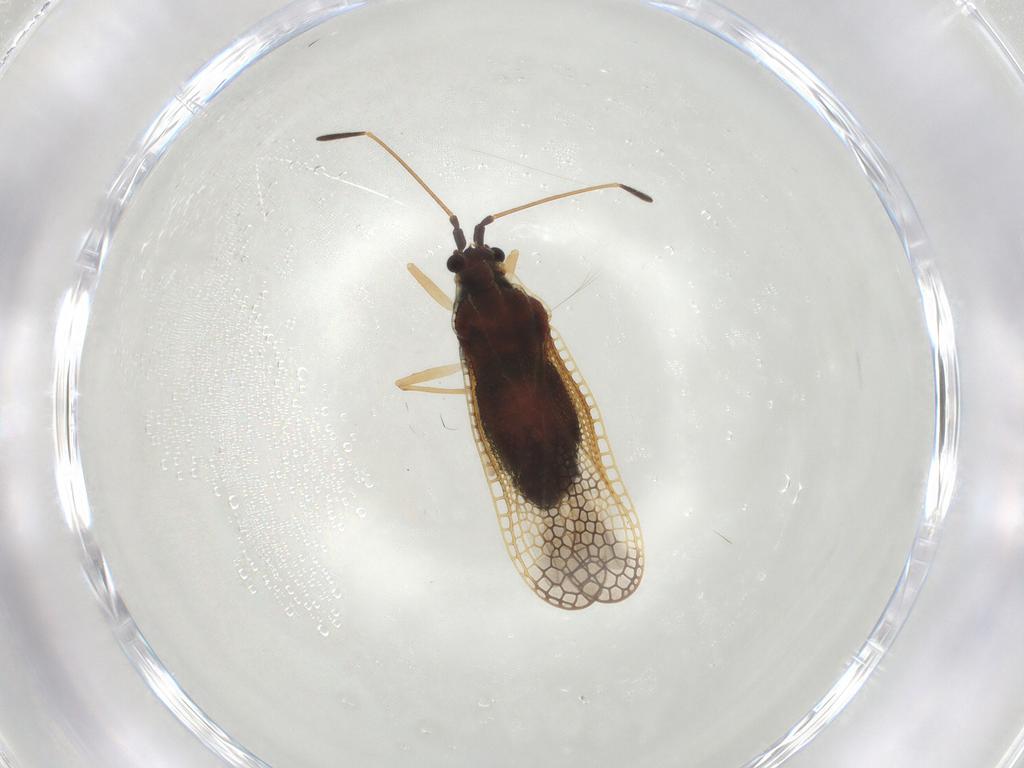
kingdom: Animalia
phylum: Arthropoda
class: Insecta
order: Hemiptera
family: Tingidae
